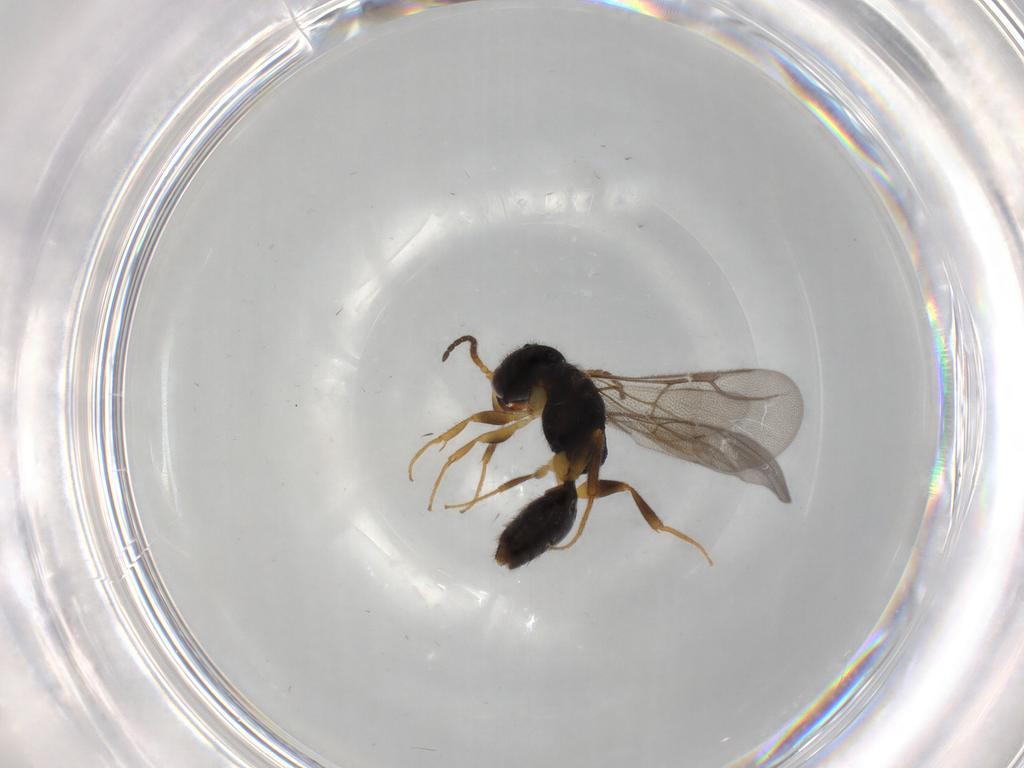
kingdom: Animalia
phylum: Arthropoda
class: Insecta
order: Hymenoptera
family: Bethylidae
